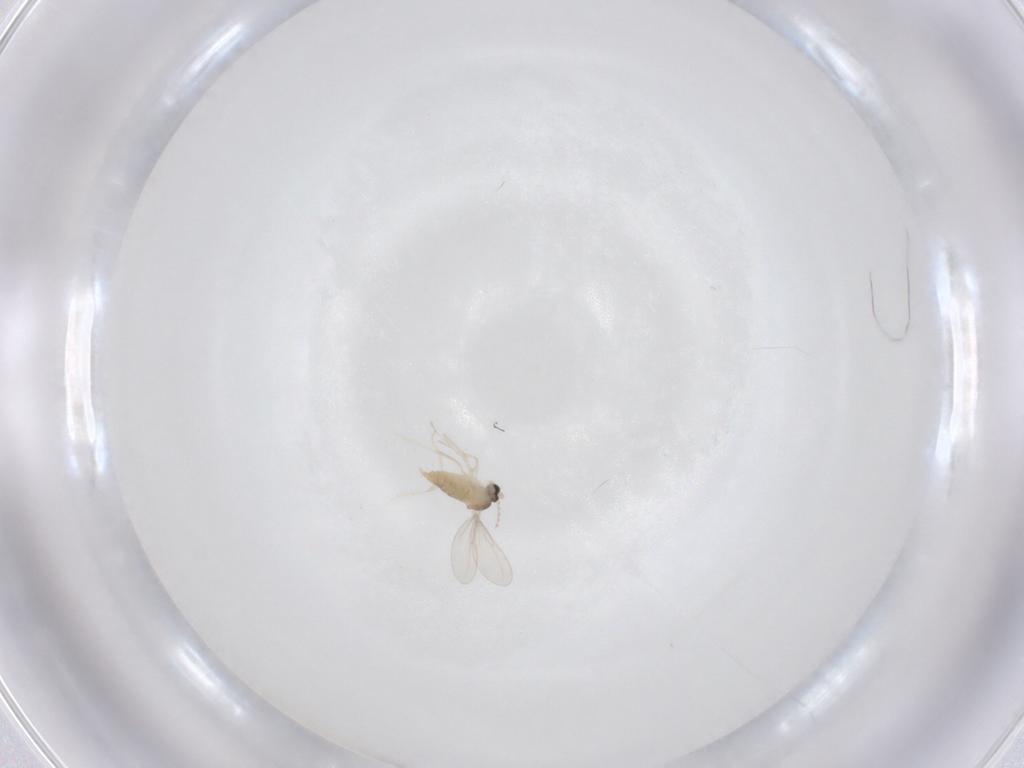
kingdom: Animalia
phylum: Arthropoda
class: Insecta
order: Diptera
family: Cecidomyiidae
